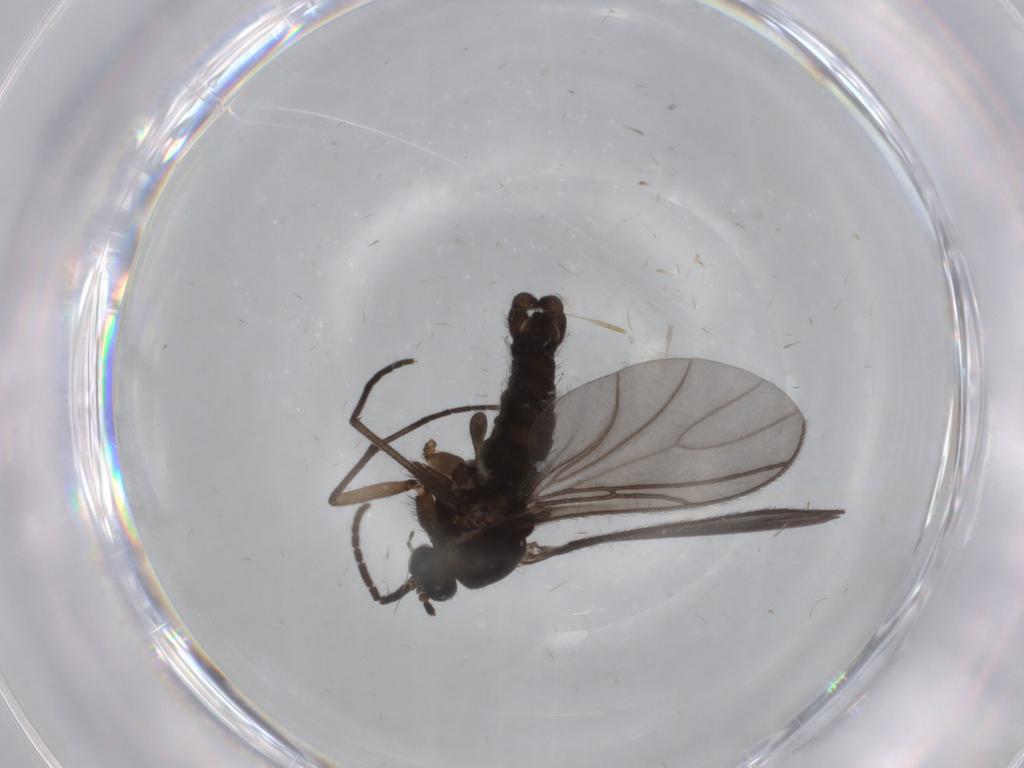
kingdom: Animalia
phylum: Arthropoda
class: Insecta
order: Diptera
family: Sciaridae
